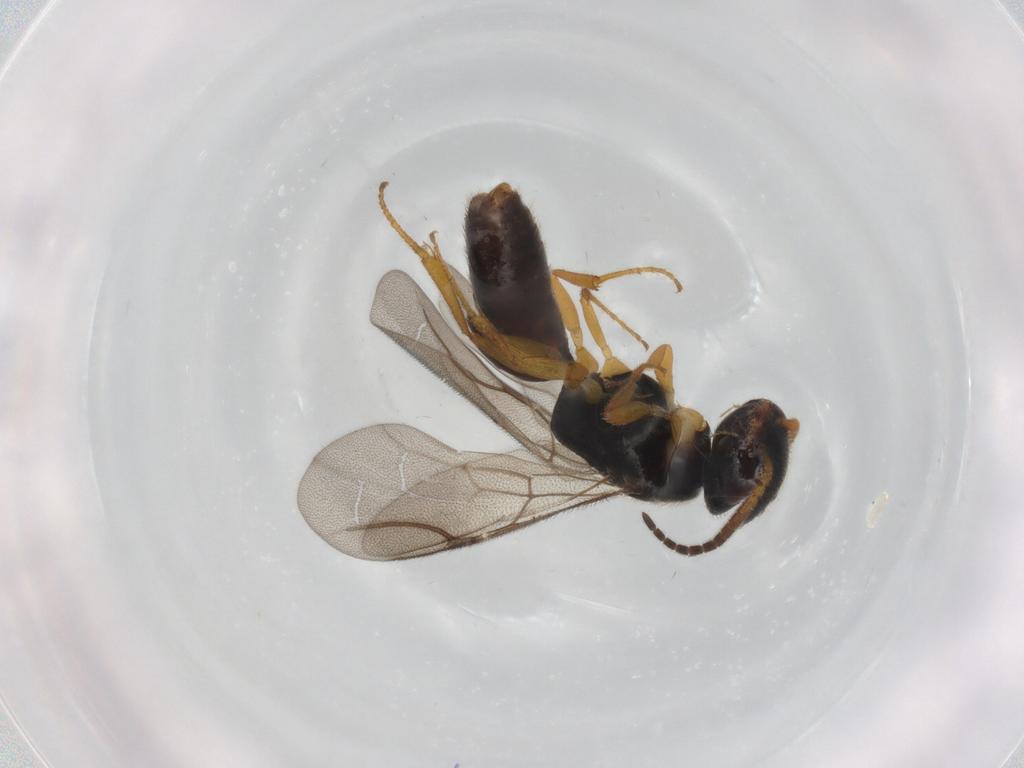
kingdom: Animalia
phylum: Arthropoda
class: Insecta
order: Hymenoptera
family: Bethylidae
